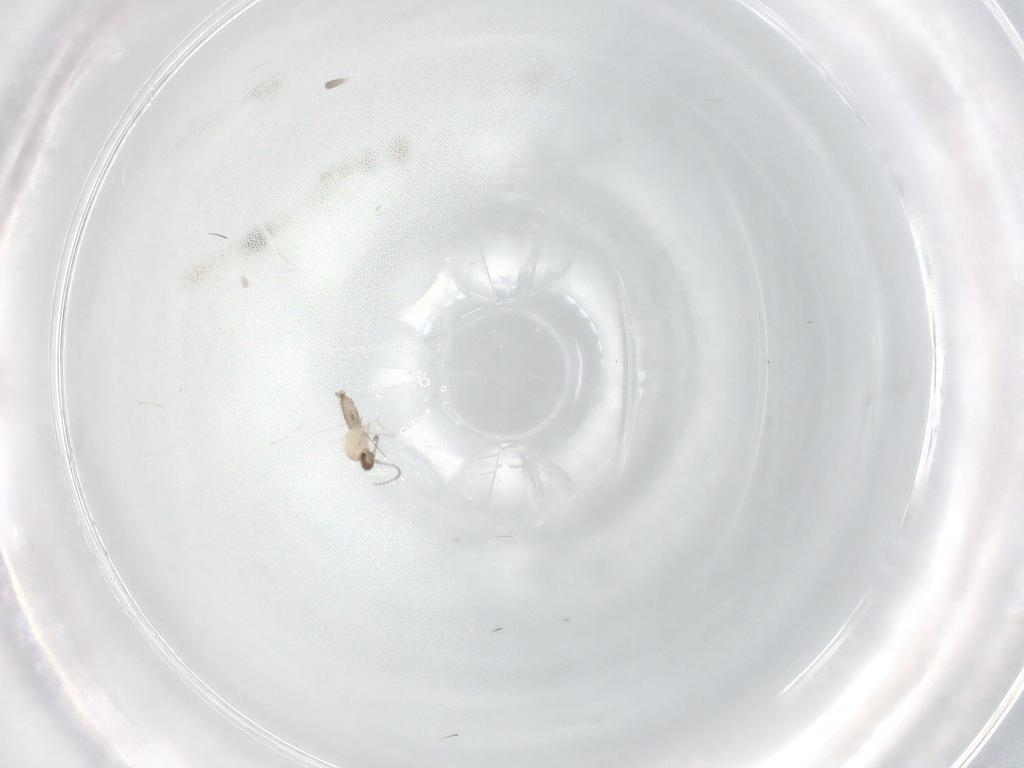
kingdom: Animalia
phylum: Arthropoda
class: Insecta
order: Diptera
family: Cecidomyiidae
